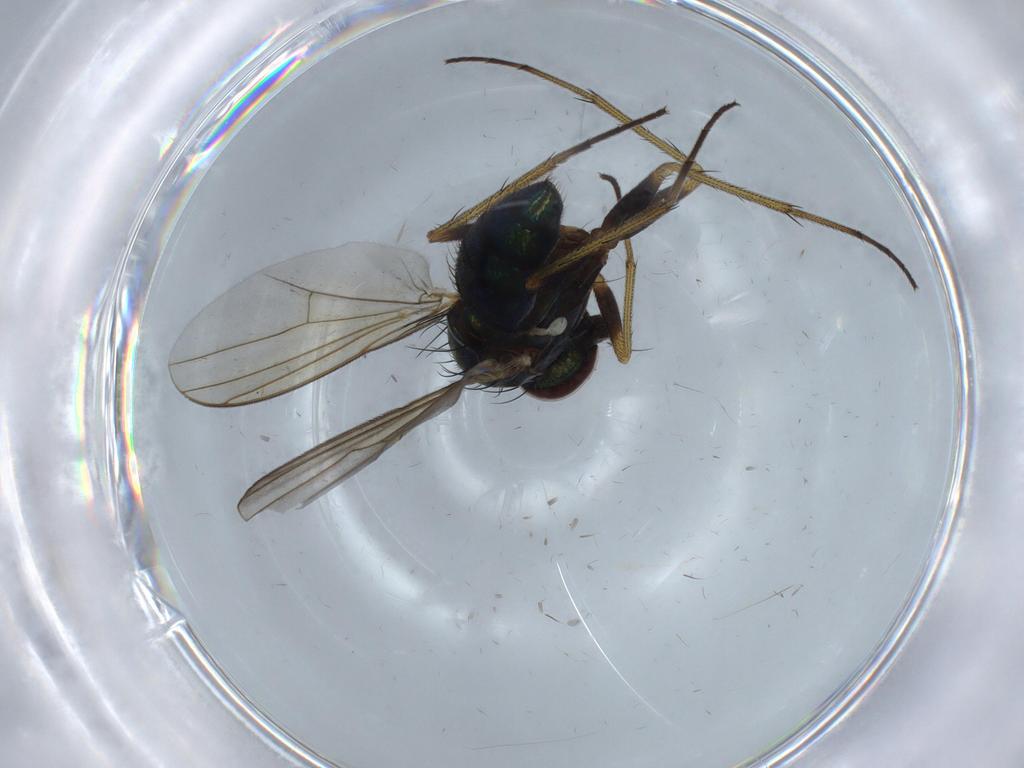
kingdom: Animalia
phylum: Arthropoda
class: Insecta
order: Diptera
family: Dolichopodidae
